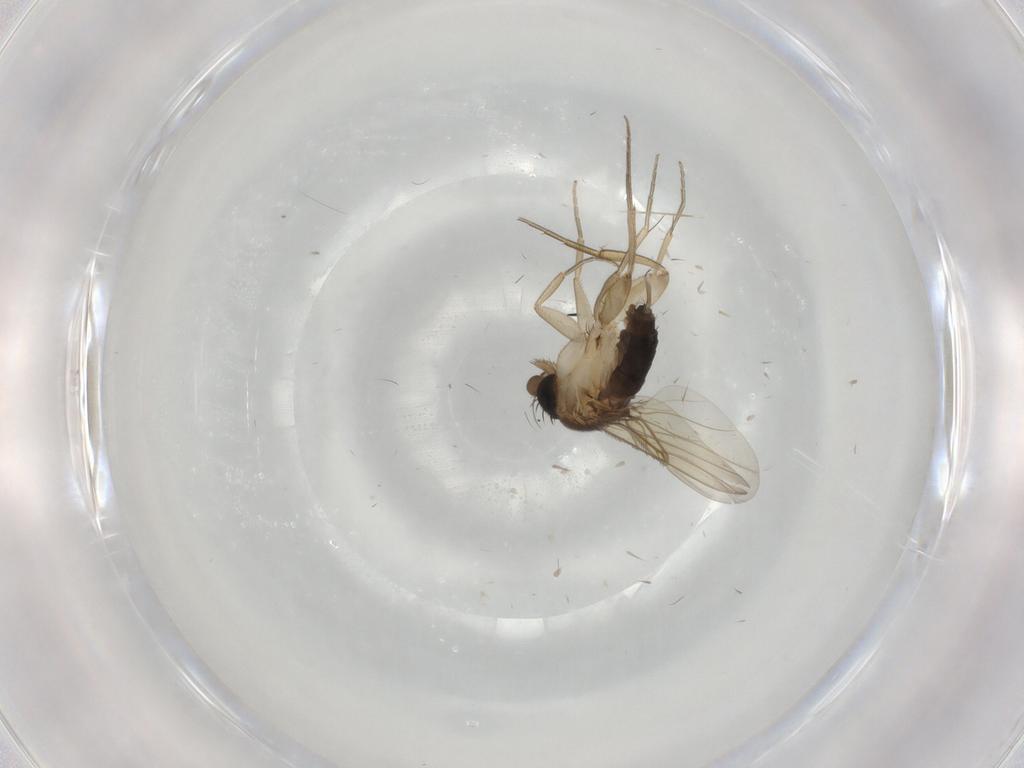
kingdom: Animalia
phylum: Arthropoda
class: Insecta
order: Diptera
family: Phoridae
